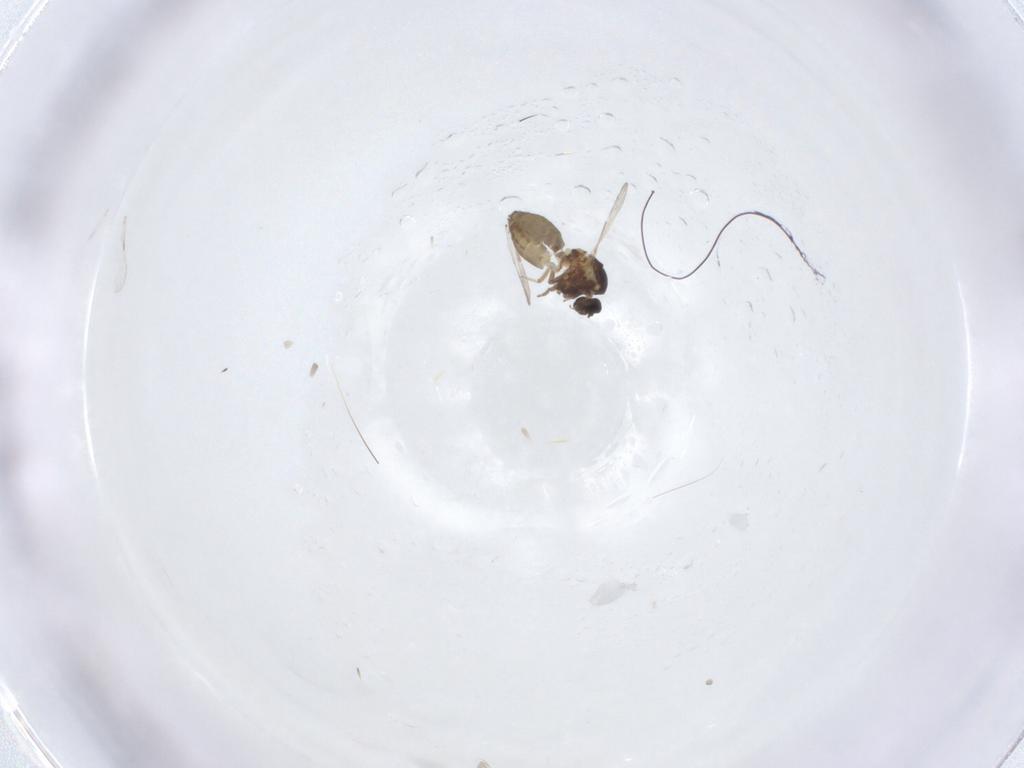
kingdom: Animalia
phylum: Arthropoda
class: Insecta
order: Diptera
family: Ceratopogonidae
